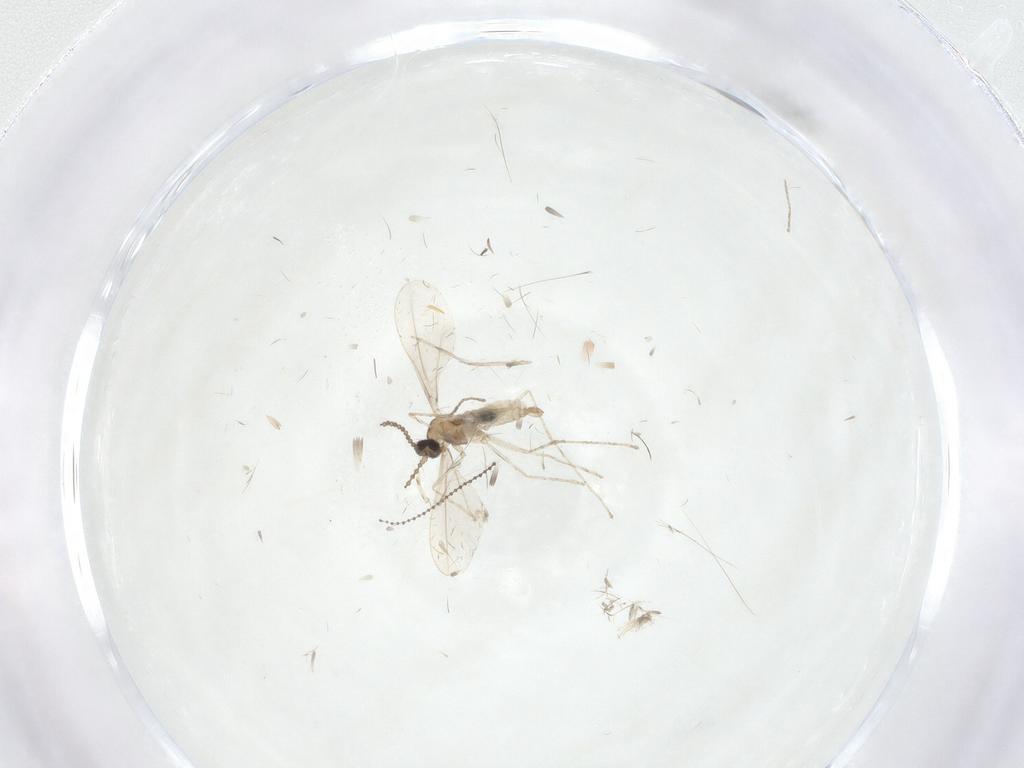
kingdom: Animalia
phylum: Arthropoda
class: Insecta
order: Diptera
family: Cecidomyiidae
